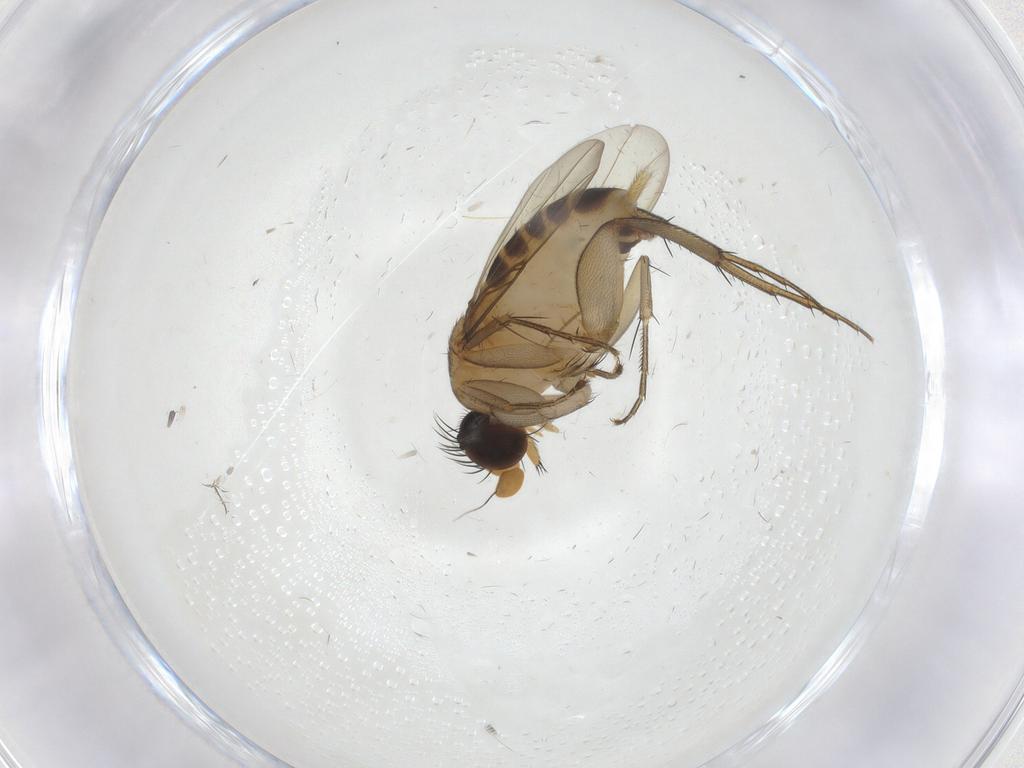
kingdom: Animalia
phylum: Arthropoda
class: Insecta
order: Diptera
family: Phoridae
